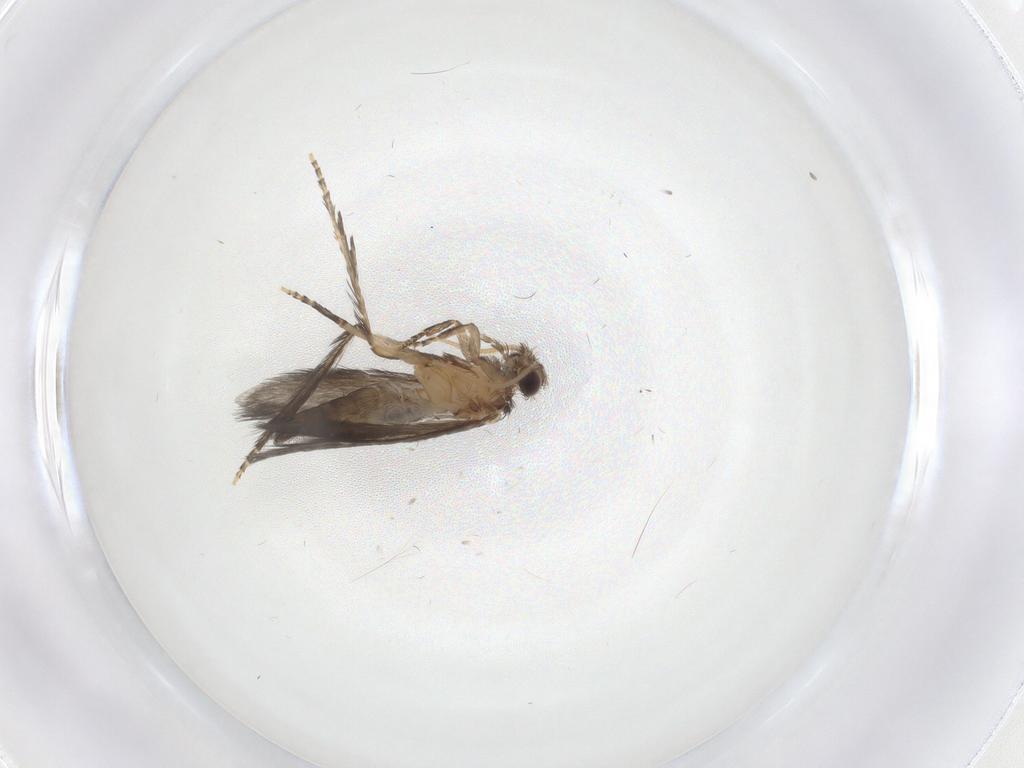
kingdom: Animalia
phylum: Arthropoda
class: Insecta
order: Trichoptera
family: Hydroptilidae
